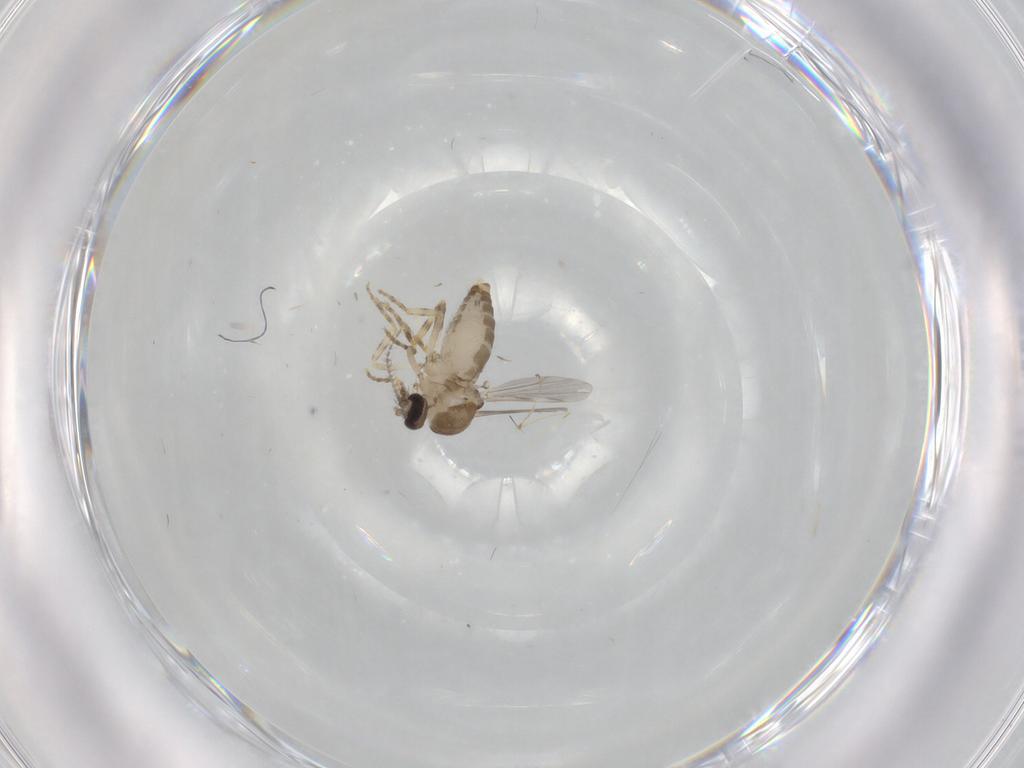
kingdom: Animalia
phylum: Arthropoda
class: Insecta
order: Diptera
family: Ceratopogonidae
